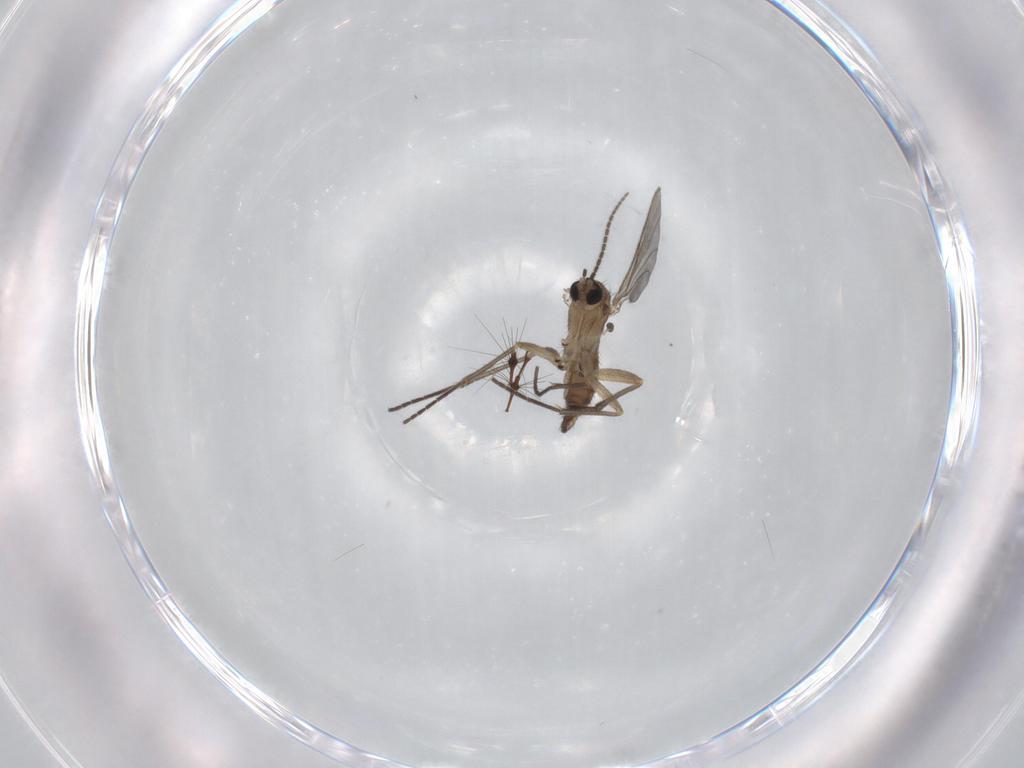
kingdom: Animalia
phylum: Arthropoda
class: Insecta
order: Diptera
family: Sciaridae
